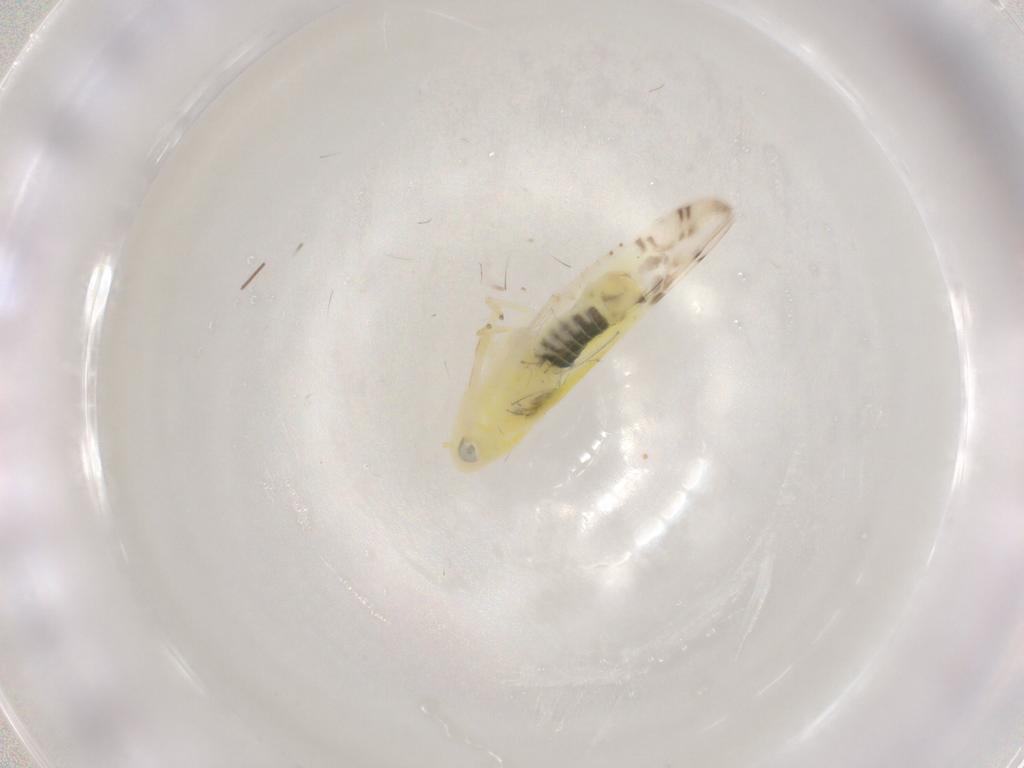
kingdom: Animalia
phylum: Arthropoda
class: Insecta
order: Hemiptera
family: Cicadellidae
